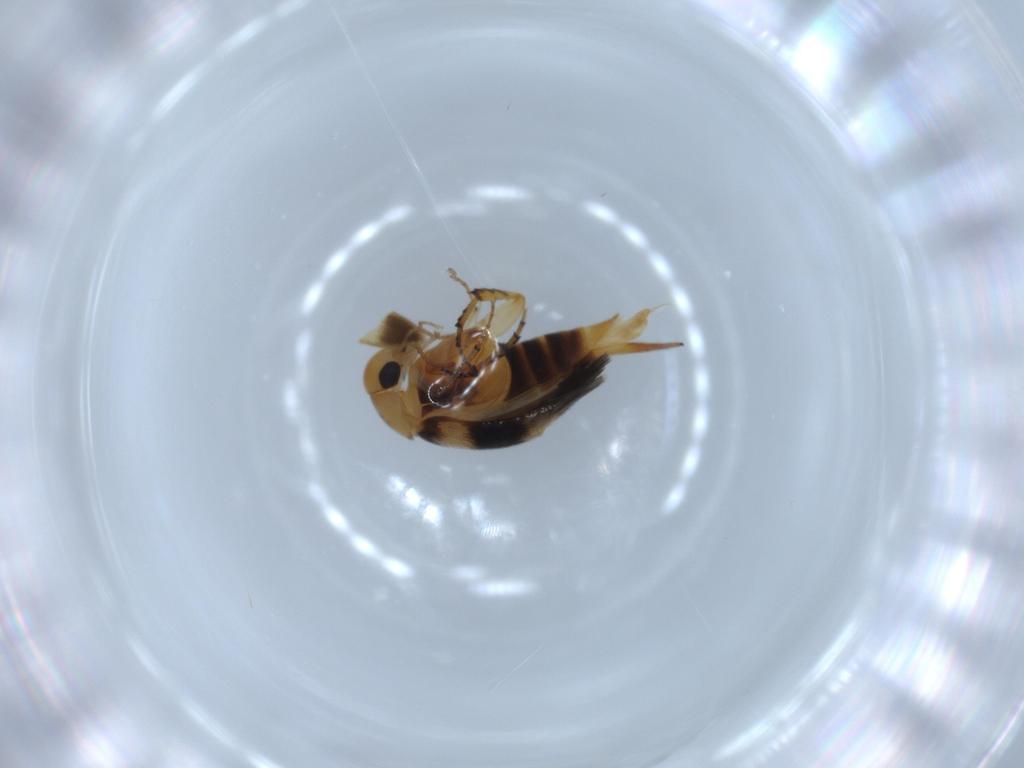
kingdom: Animalia
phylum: Arthropoda
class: Insecta
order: Coleoptera
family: Mordellidae
